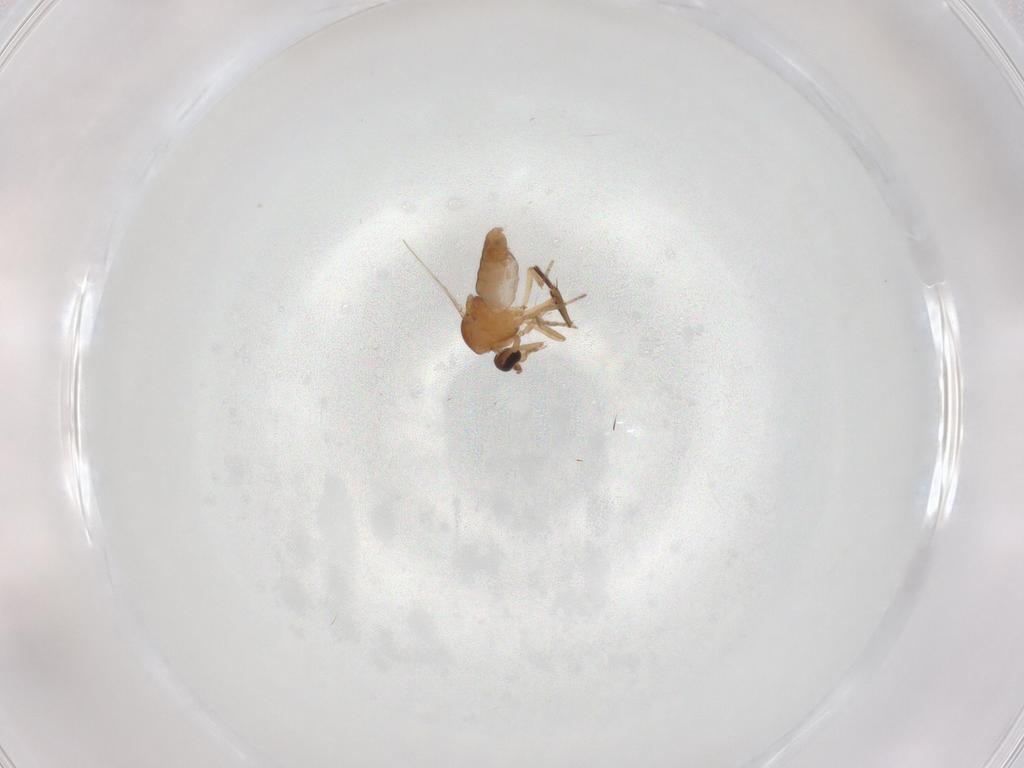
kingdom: Animalia
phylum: Arthropoda
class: Insecta
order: Diptera
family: Ceratopogonidae
